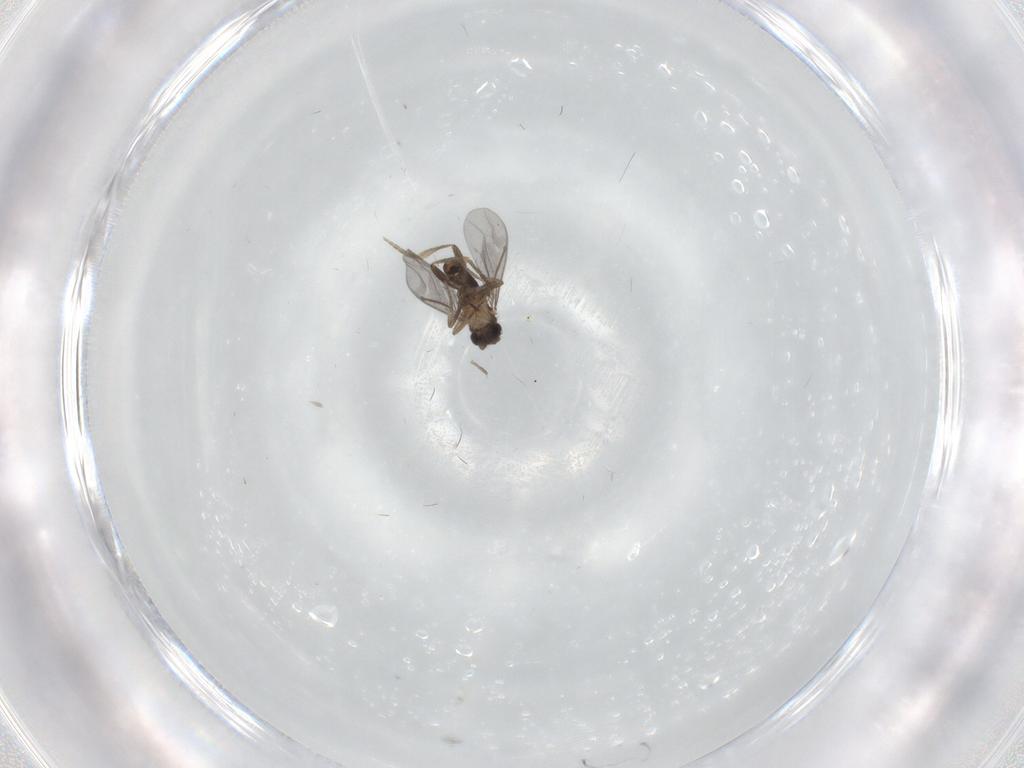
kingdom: Animalia
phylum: Arthropoda
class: Insecta
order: Diptera
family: Phoridae
